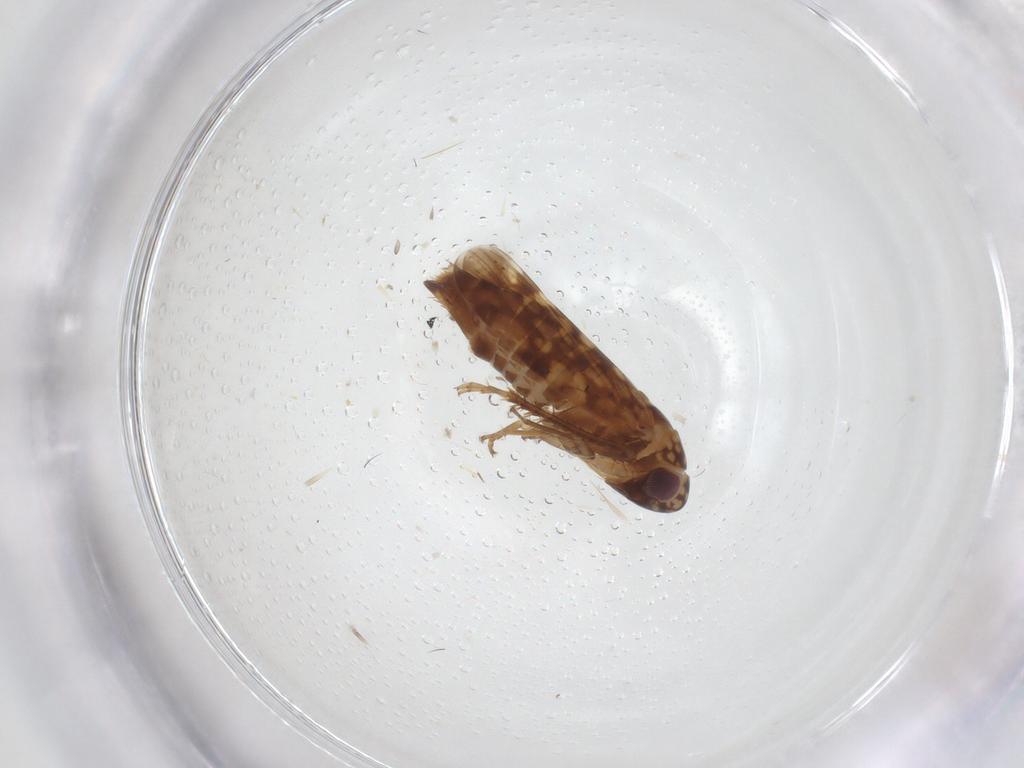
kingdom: Animalia
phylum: Arthropoda
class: Insecta
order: Hemiptera
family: Cicadellidae
